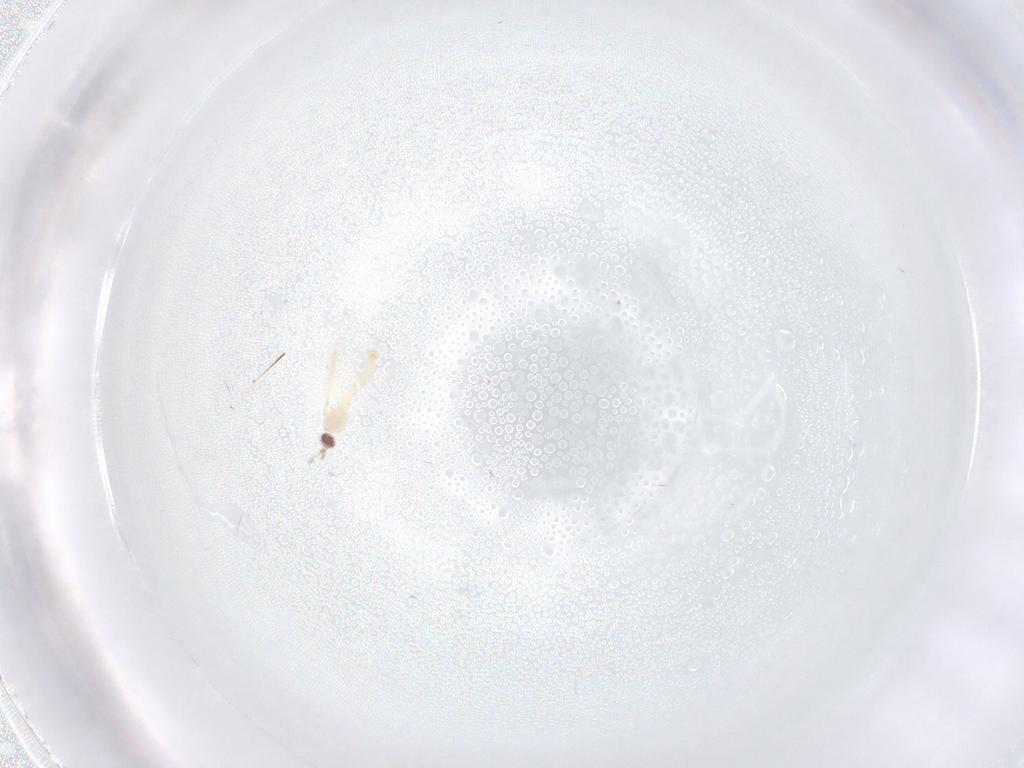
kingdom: Animalia
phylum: Arthropoda
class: Insecta
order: Diptera
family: Cecidomyiidae
